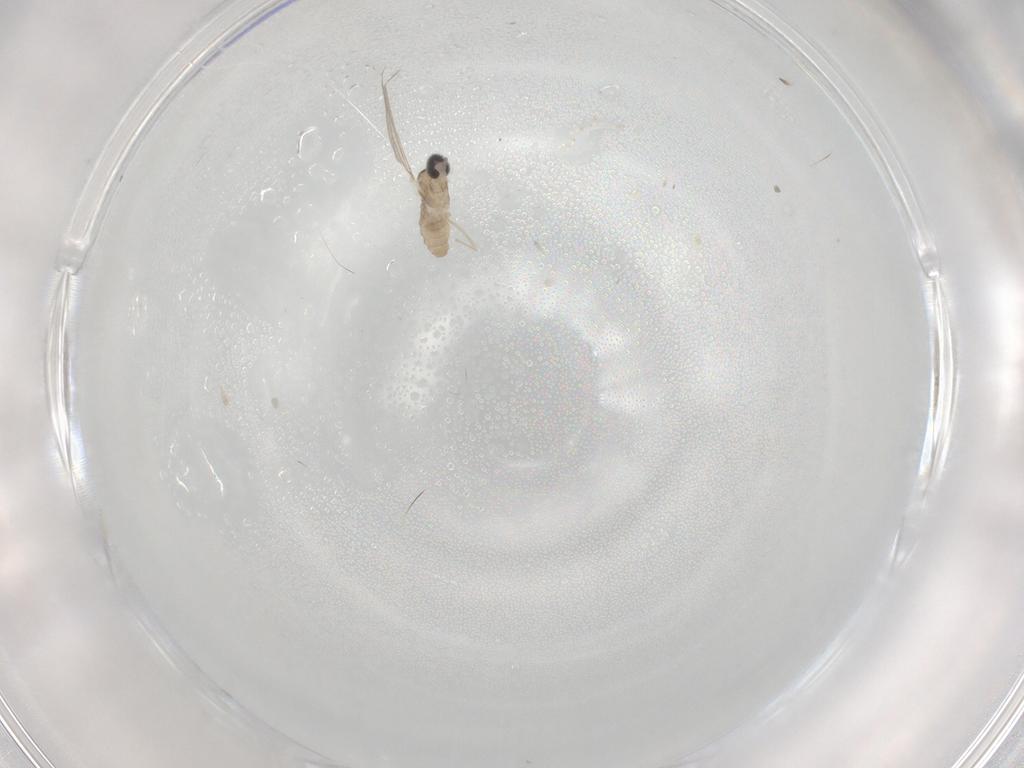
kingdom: Animalia
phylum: Arthropoda
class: Insecta
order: Diptera
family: Cecidomyiidae
